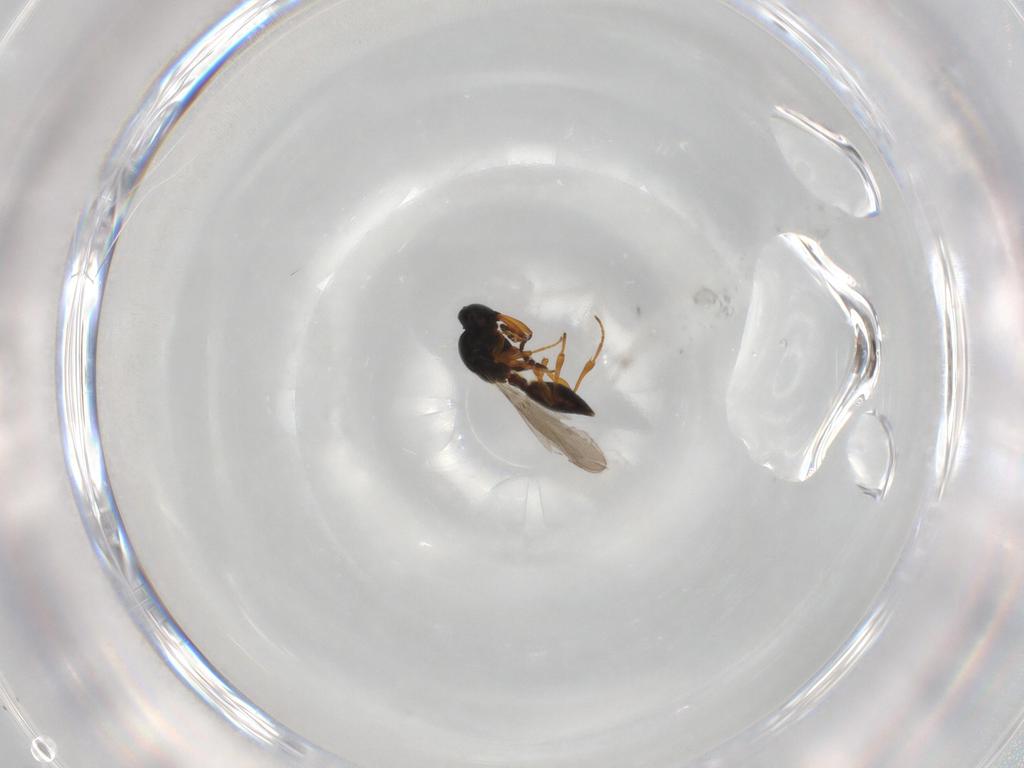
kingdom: Animalia
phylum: Arthropoda
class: Insecta
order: Hymenoptera
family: Platygastridae
